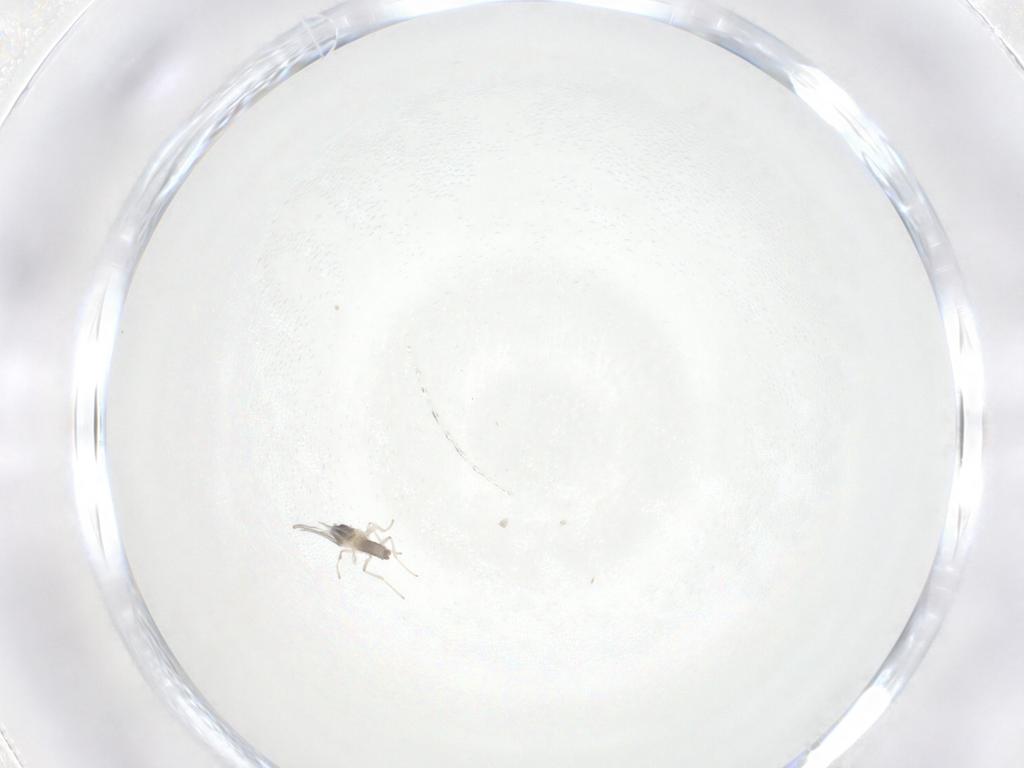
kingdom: Animalia
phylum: Arthropoda
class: Insecta
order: Diptera
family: Cecidomyiidae
